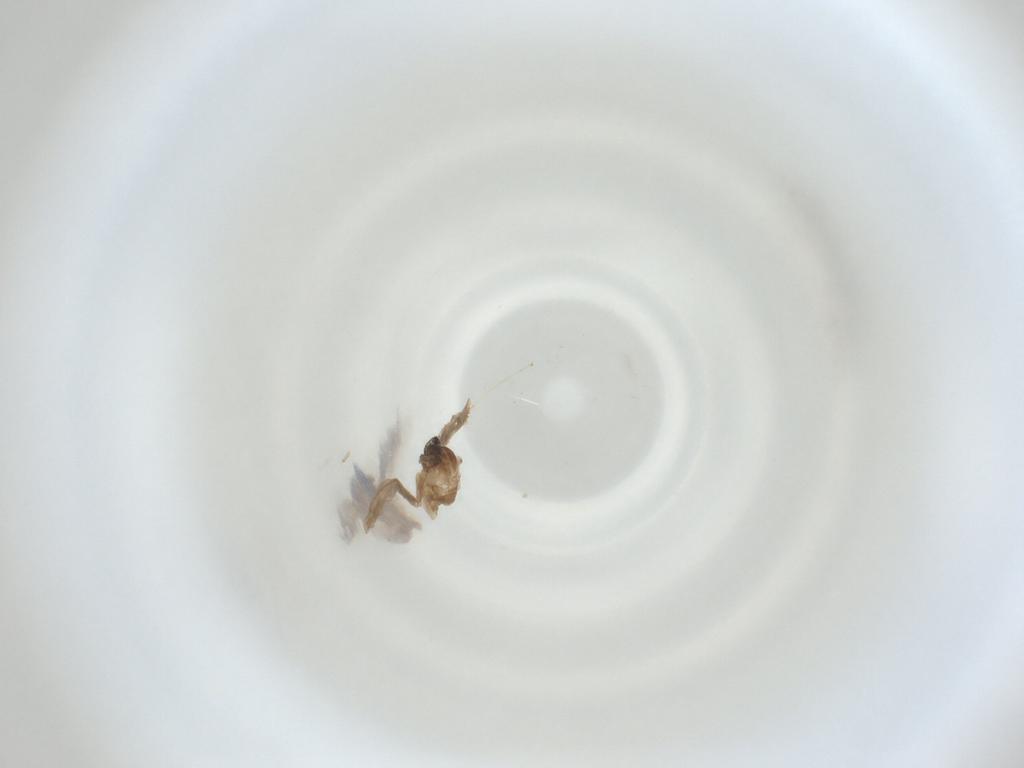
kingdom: Animalia
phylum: Arthropoda
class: Insecta
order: Diptera
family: Cecidomyiidae
